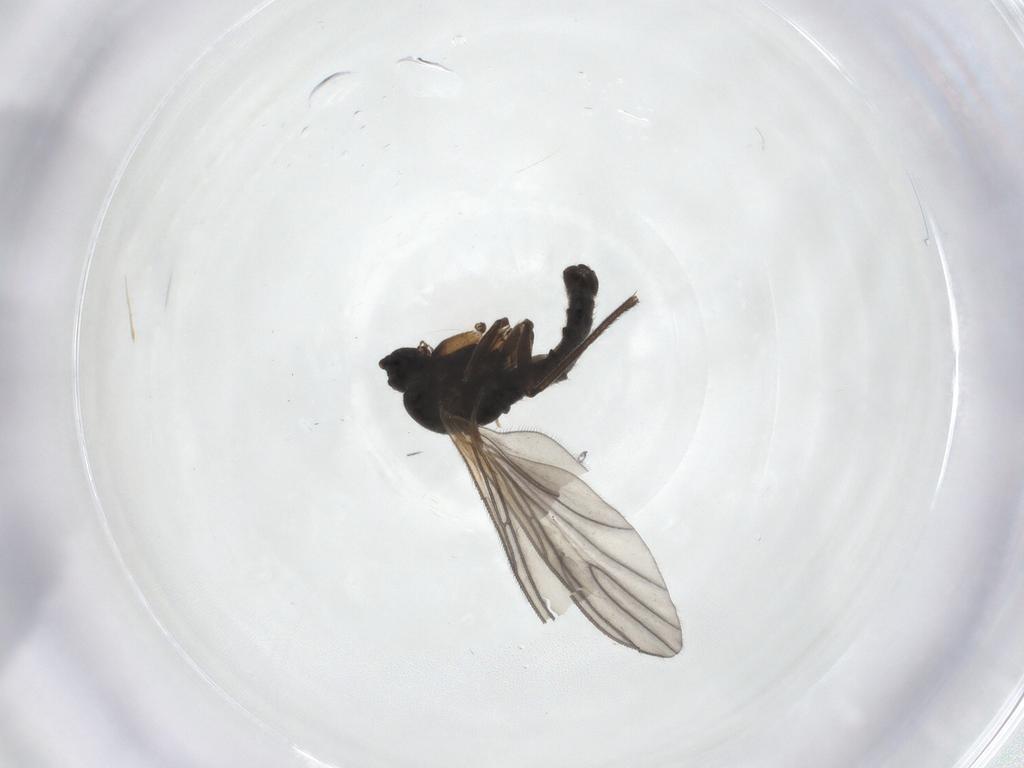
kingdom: Animalia
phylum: Arthropoda
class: Insecta
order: Diptera
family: Sciaridae
